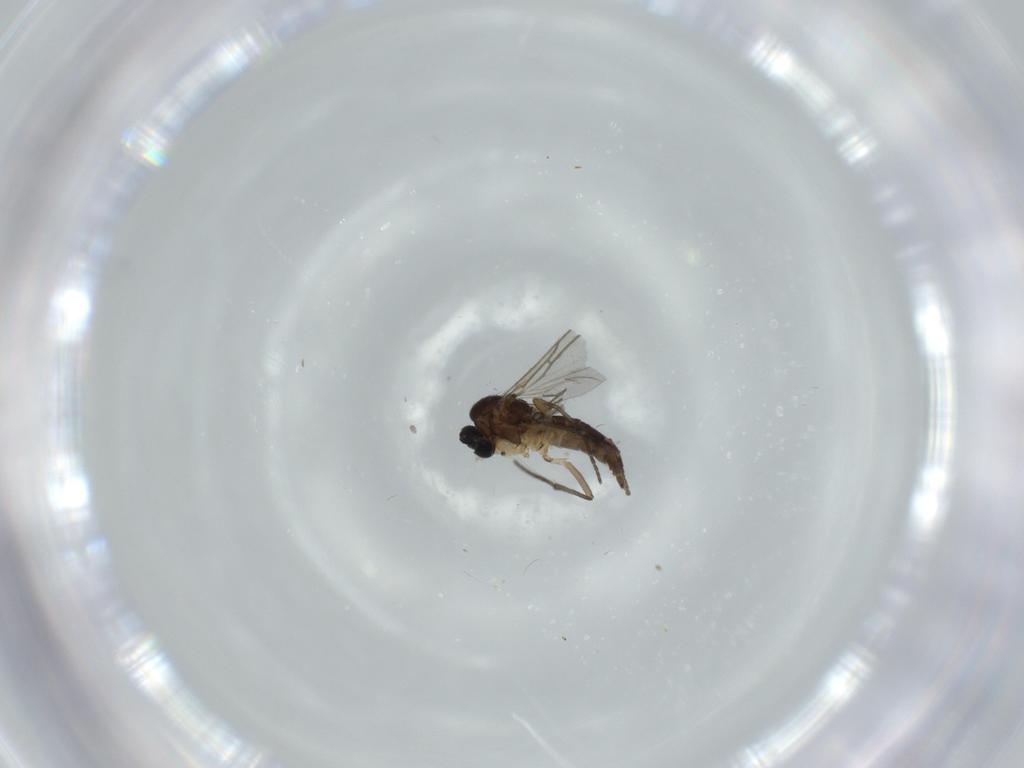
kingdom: Animalia
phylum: Arthropoda
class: Insecta
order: Diptera
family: Sciaridae
